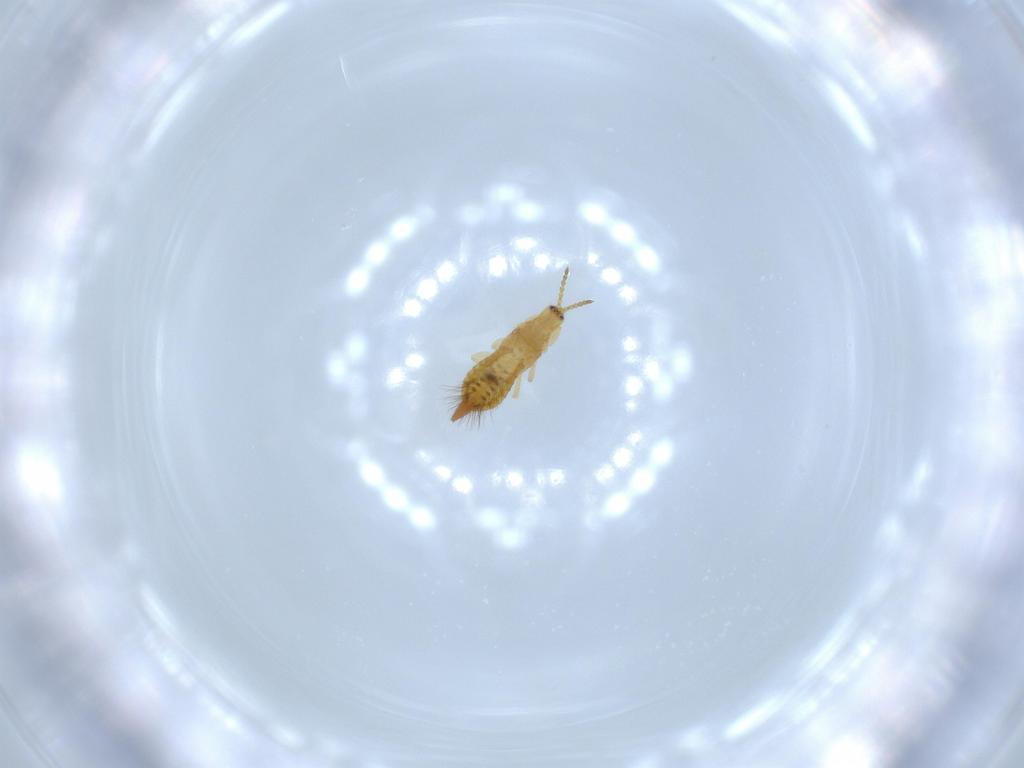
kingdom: Animalia
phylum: Arthropoda
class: Insecta
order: Thysanoptera
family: Phlaeothripidae
